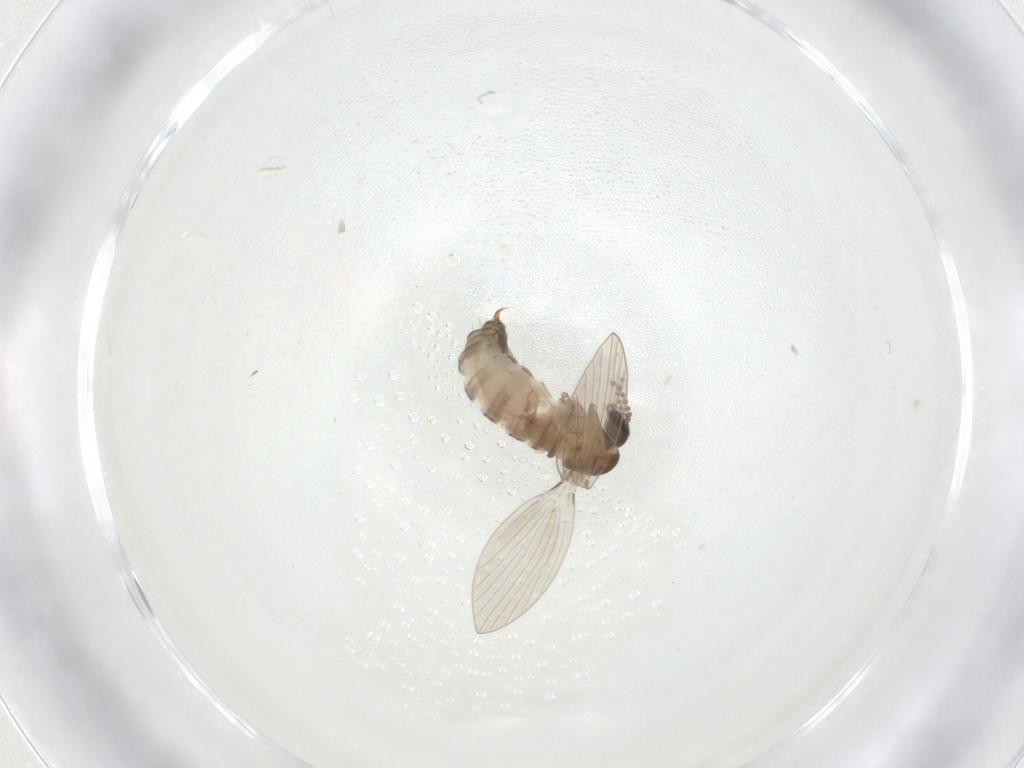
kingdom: Animalia
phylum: Arthropoda
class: Insecta
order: Diptera
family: Psychodidae
